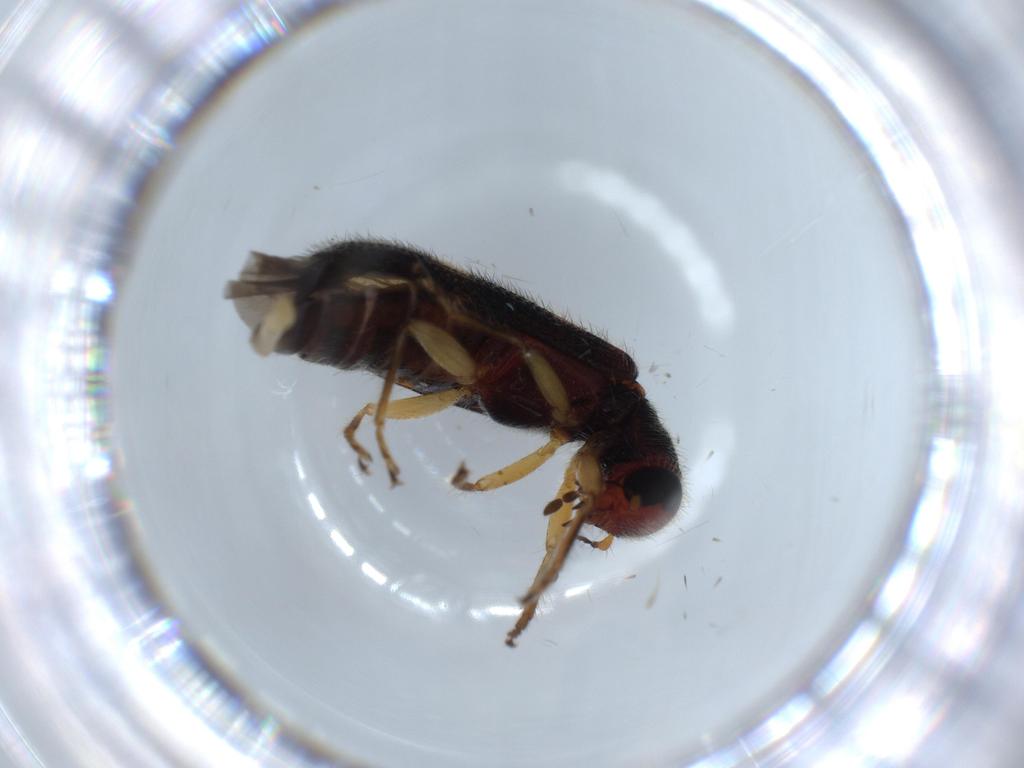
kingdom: Animalia
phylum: Arthropoda
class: Insecta
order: Coleoptera
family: Cleridae
